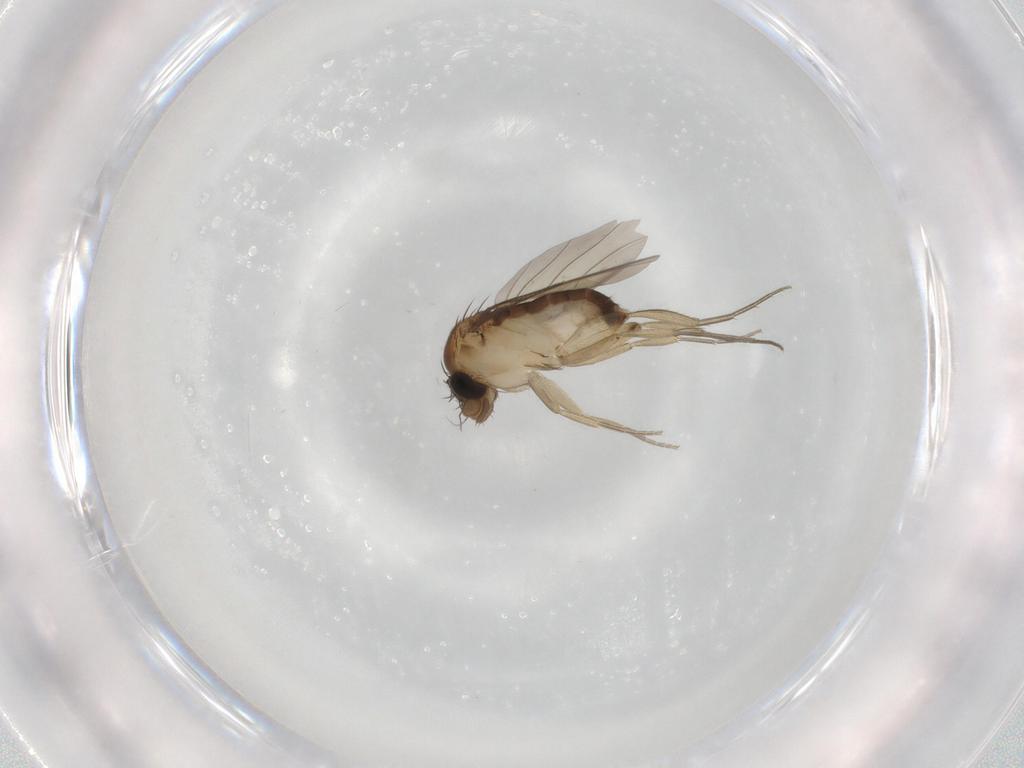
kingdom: Animalia
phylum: Arthropoda
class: Insecta
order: Diptera
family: Phoridae
